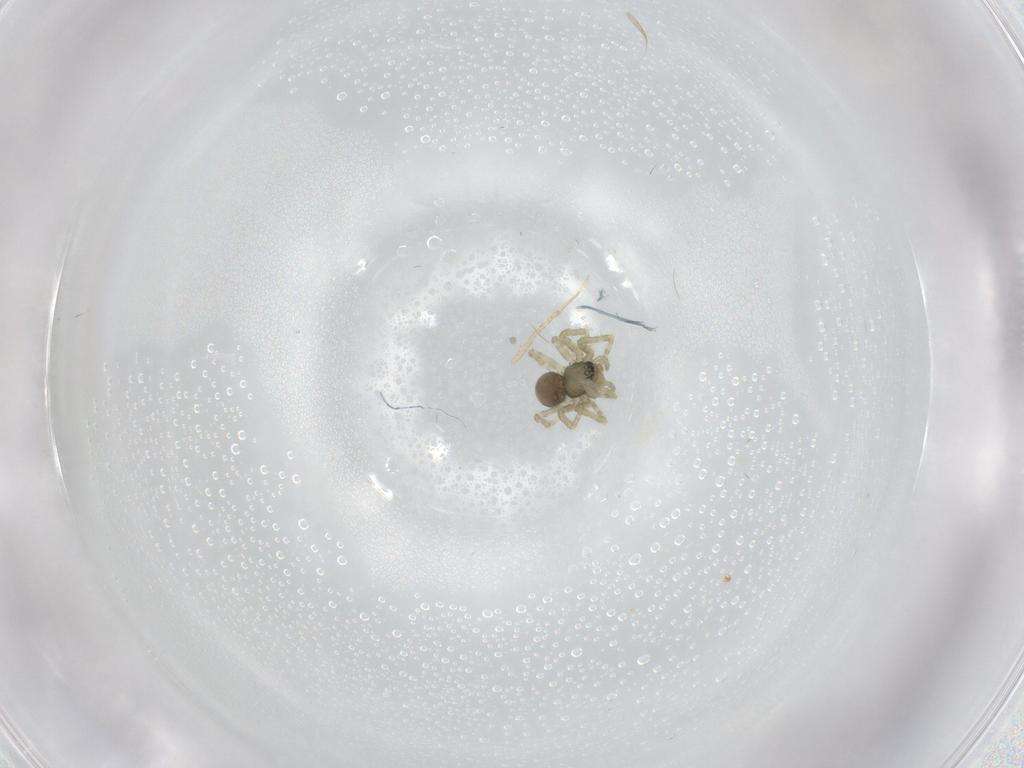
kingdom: Animalia
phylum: Arthropoda
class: Arachnida
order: Araneae
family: Linyphiidae
